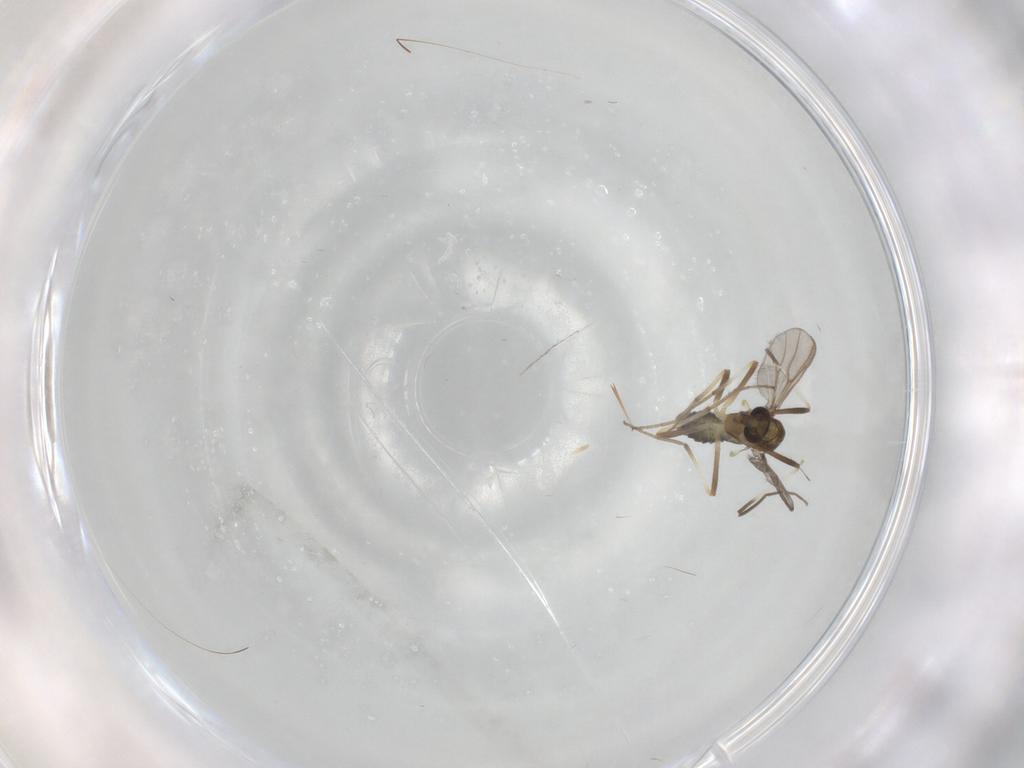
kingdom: Animalia
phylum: Arthropoda
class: Insecta
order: Diptera
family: Chironomidae
